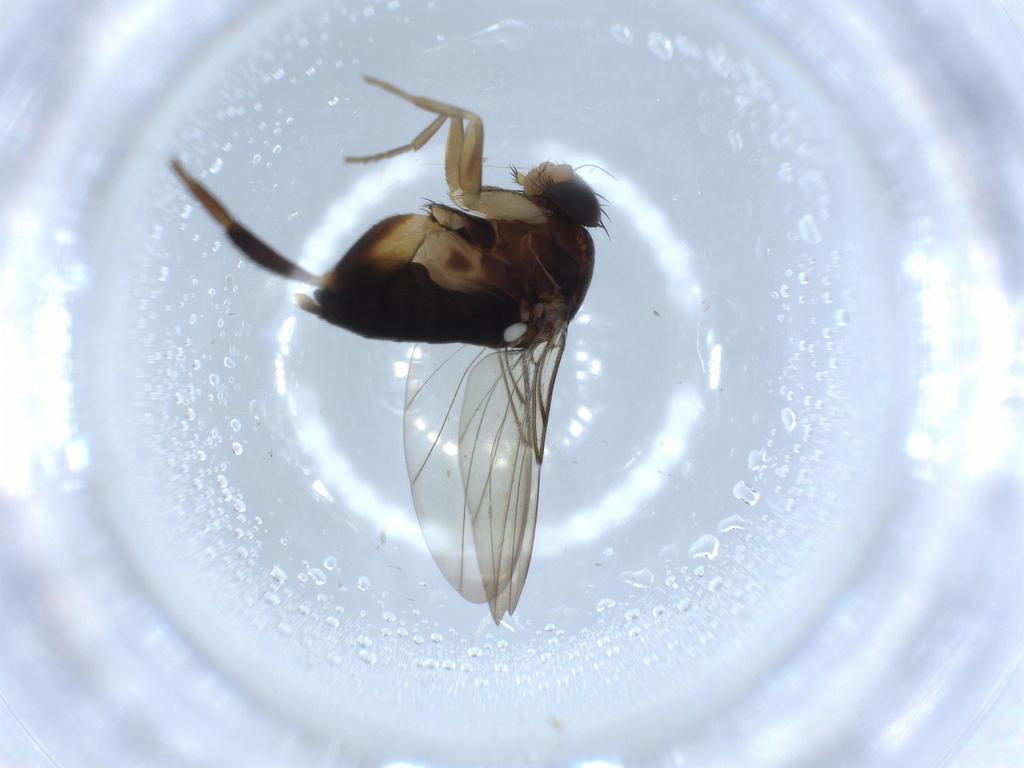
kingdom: Animalia
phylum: Arthropoda
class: Insecta
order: Diptera
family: Phoridae
